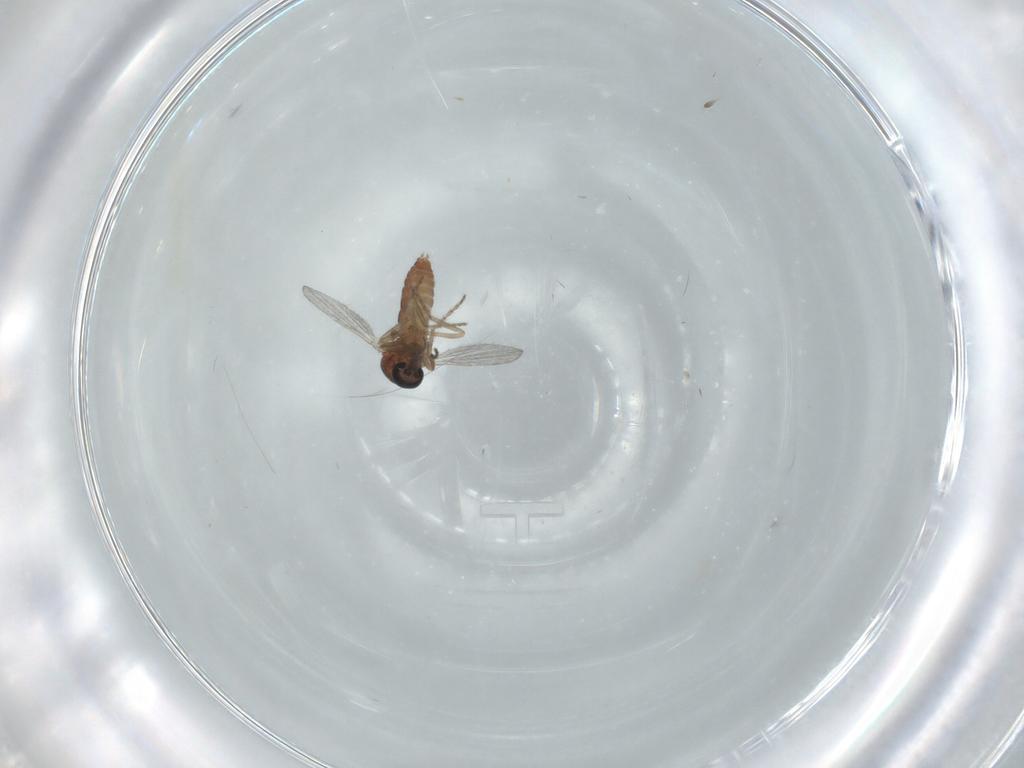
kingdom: Animalia
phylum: Arthropoda
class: Insecta
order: Diptera
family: Ceratopogonidae
